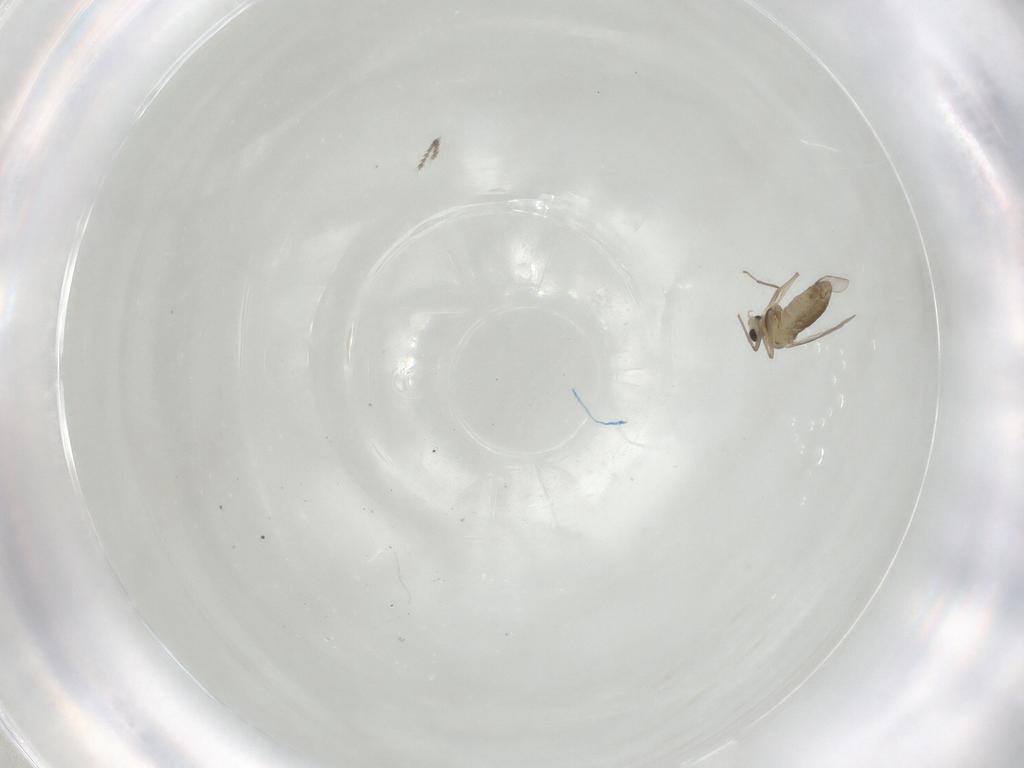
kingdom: Animalia
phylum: Arthropoda
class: Insecta
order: Diptera
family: Chironomidae
